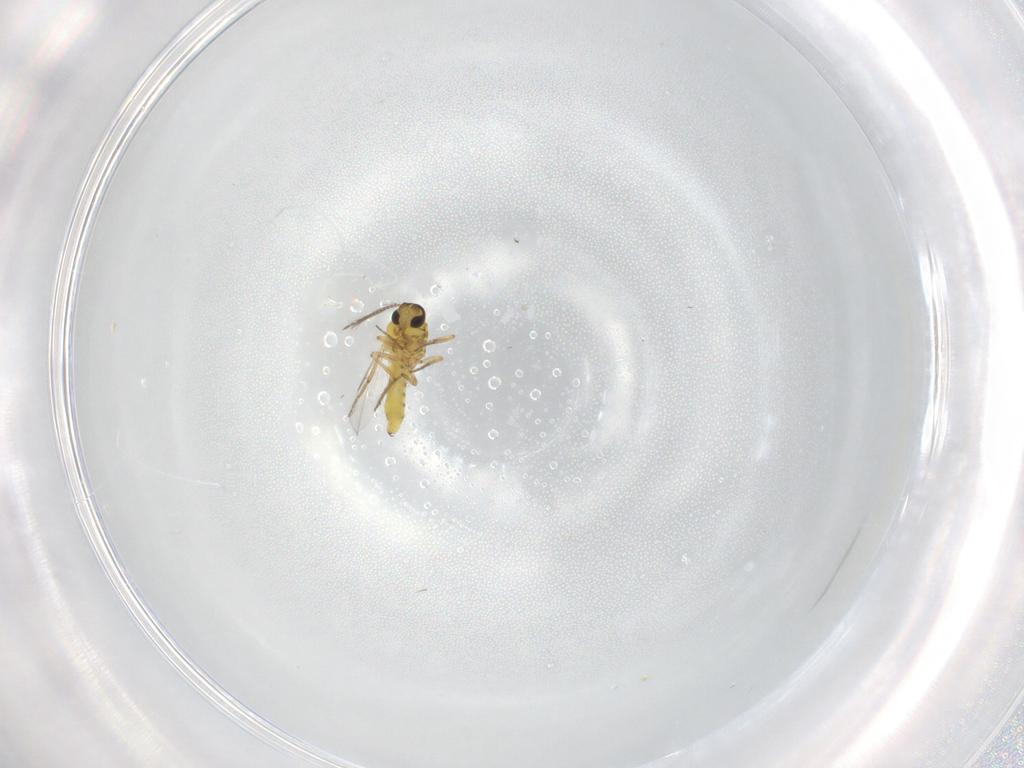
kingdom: Animalia
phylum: Arthropoda
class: Insecta
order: Diptera
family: Ceratopogonidae
